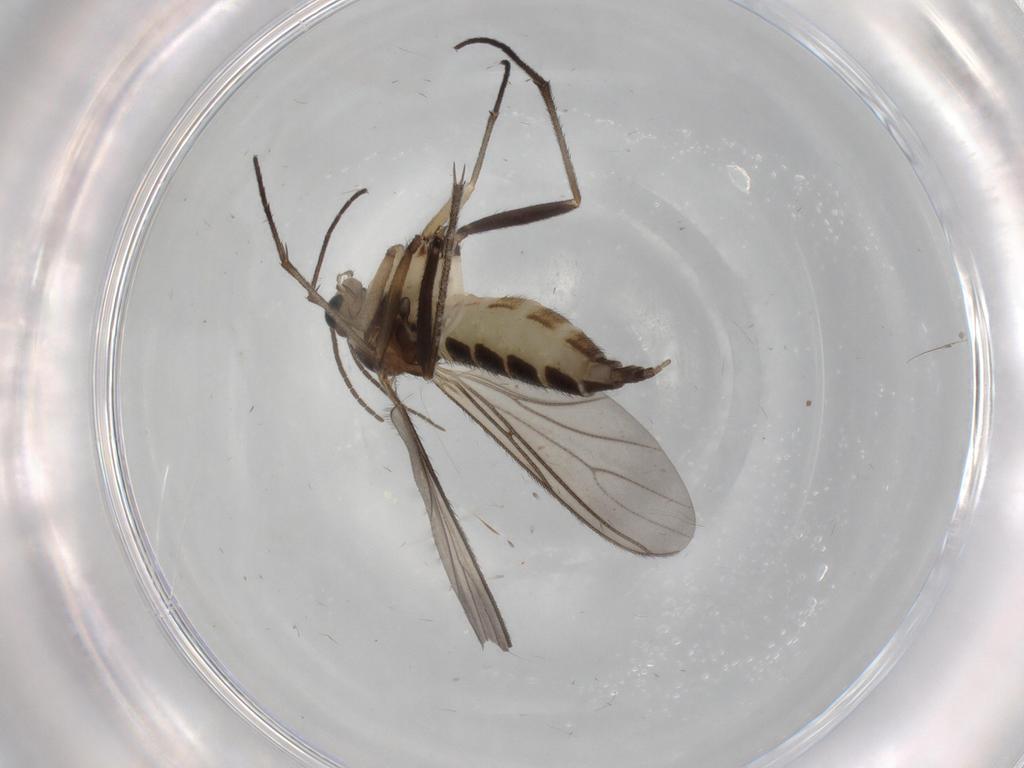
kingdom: Animalia
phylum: Arthropoda
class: Insecta
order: Diptera
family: Sciaridae
